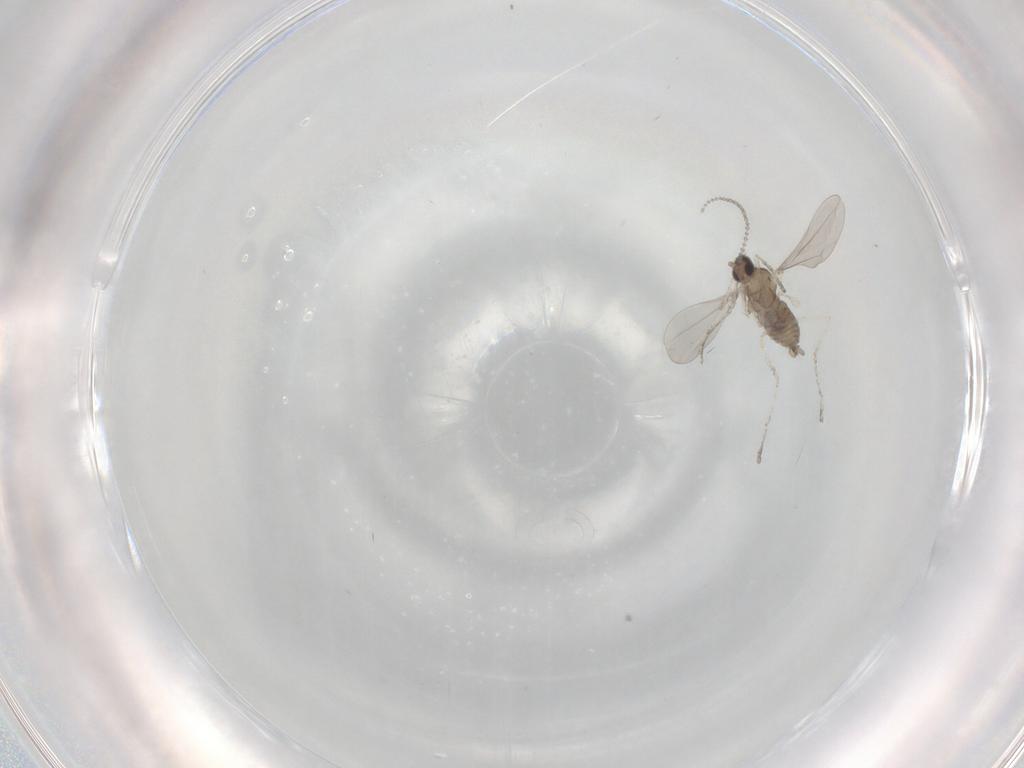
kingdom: Animalia
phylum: Arthropoda
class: Insecta
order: Diptera
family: Cecidomyiidae
